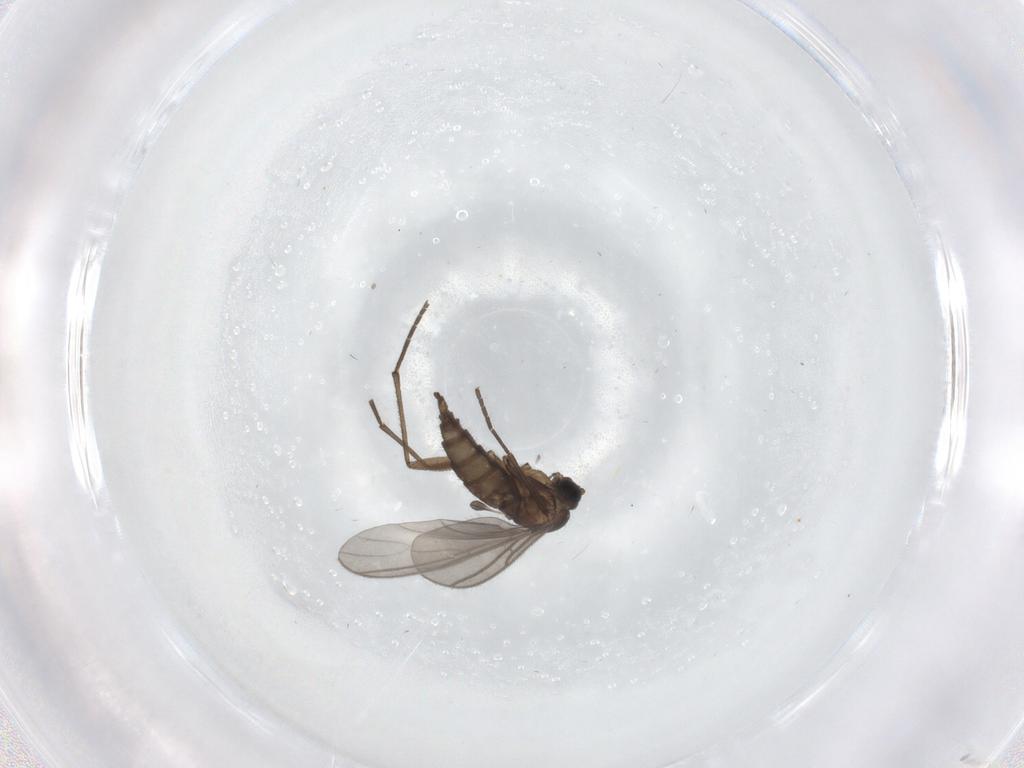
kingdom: Animalia
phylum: Arthropoda
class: Insecta
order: Diptera
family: Sciaridae
